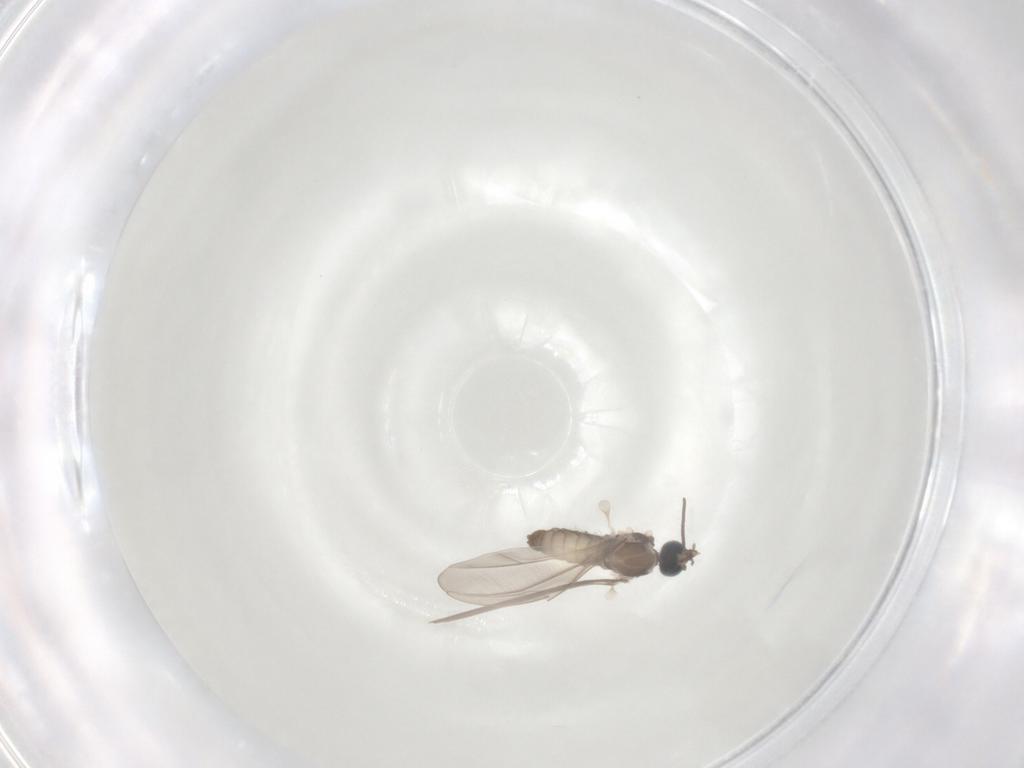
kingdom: Animalia
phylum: Arthropoda
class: Insecta
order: Diptera
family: Cecidomyiidae
